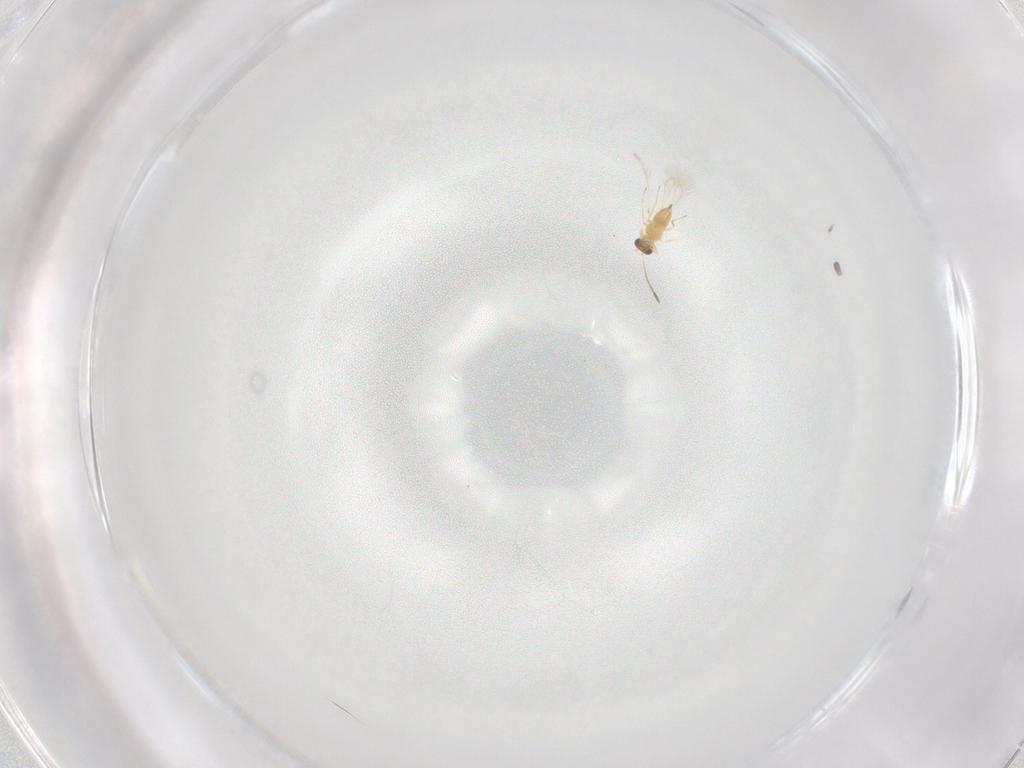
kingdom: Animalia
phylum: Arthropoda
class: Insecta
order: Hymenoptera
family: Mymaridae
